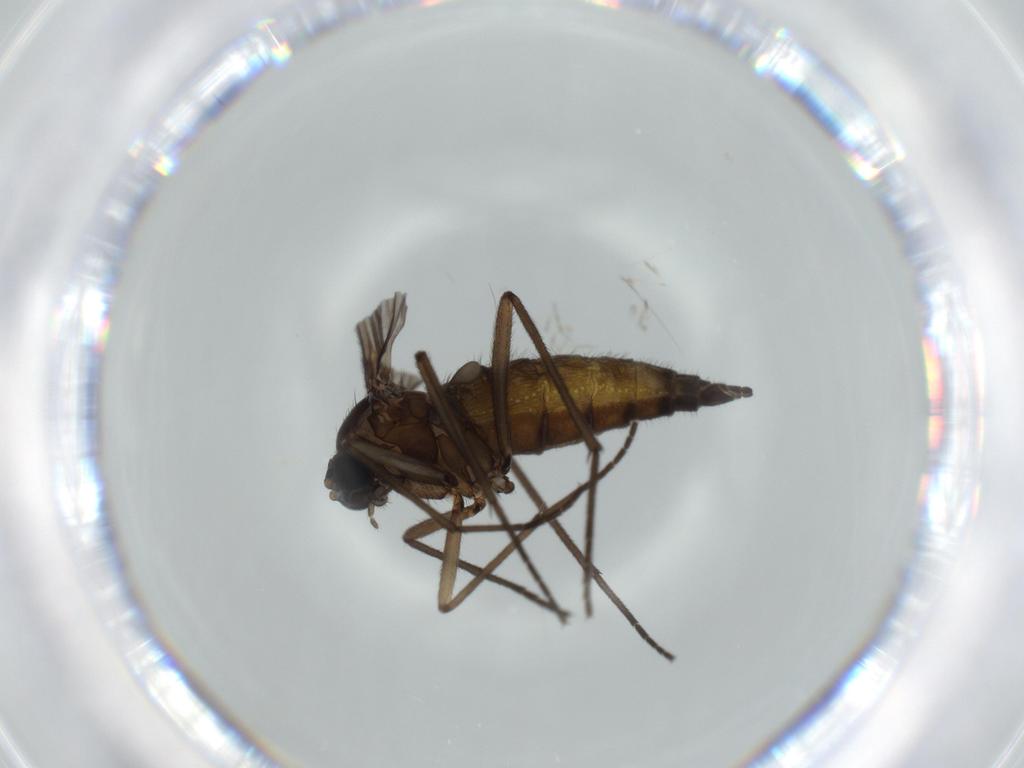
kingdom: Animalia
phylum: Arthropoda
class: Insecta
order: Diptera
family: Sciaridae
